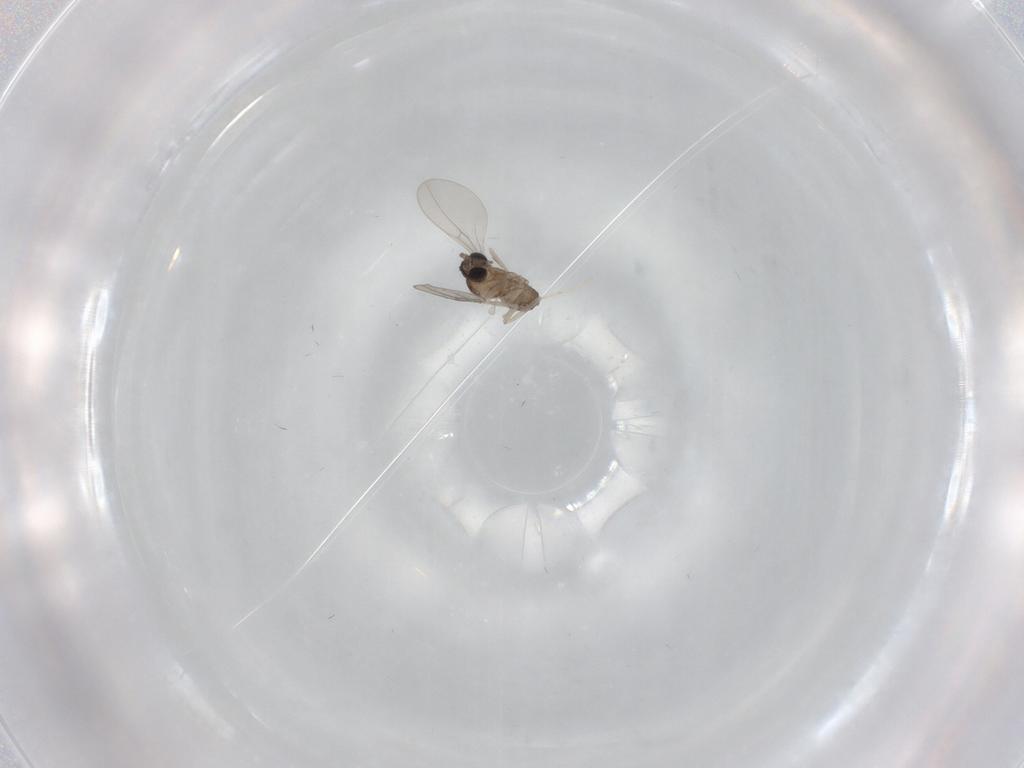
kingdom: Animalia
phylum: Arthropoda
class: Insecta
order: Diptera
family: Cecidomyiidae
